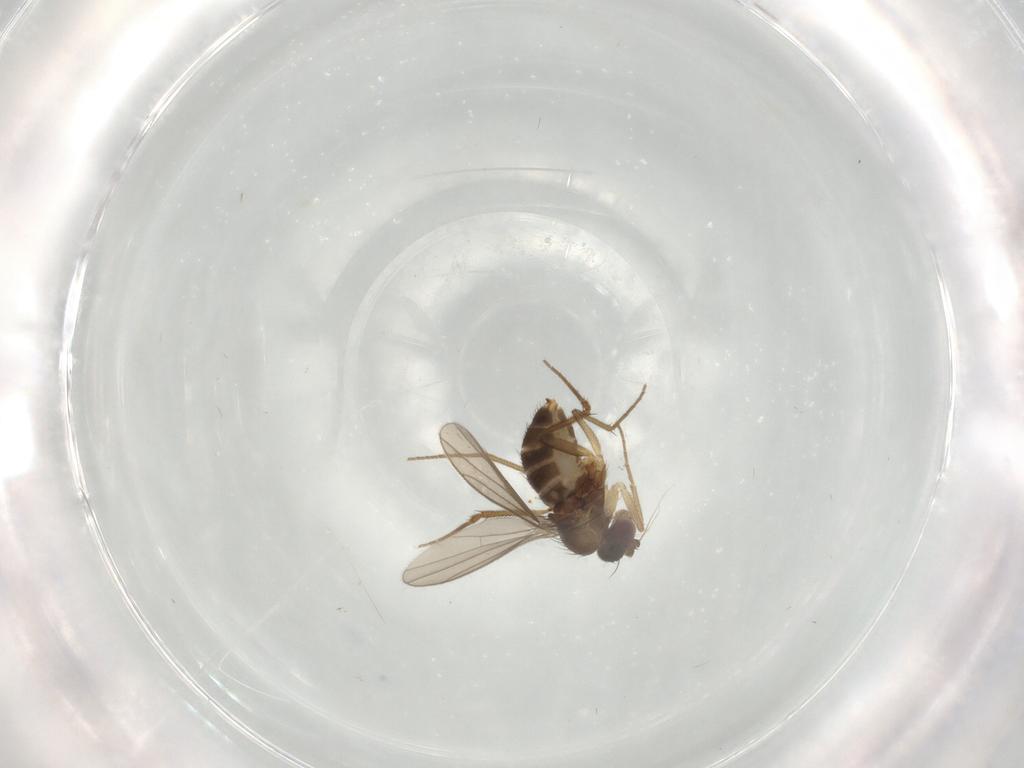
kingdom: Animalia
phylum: Arthropoda
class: Insecta
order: Diptera
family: Dolichopodidae
